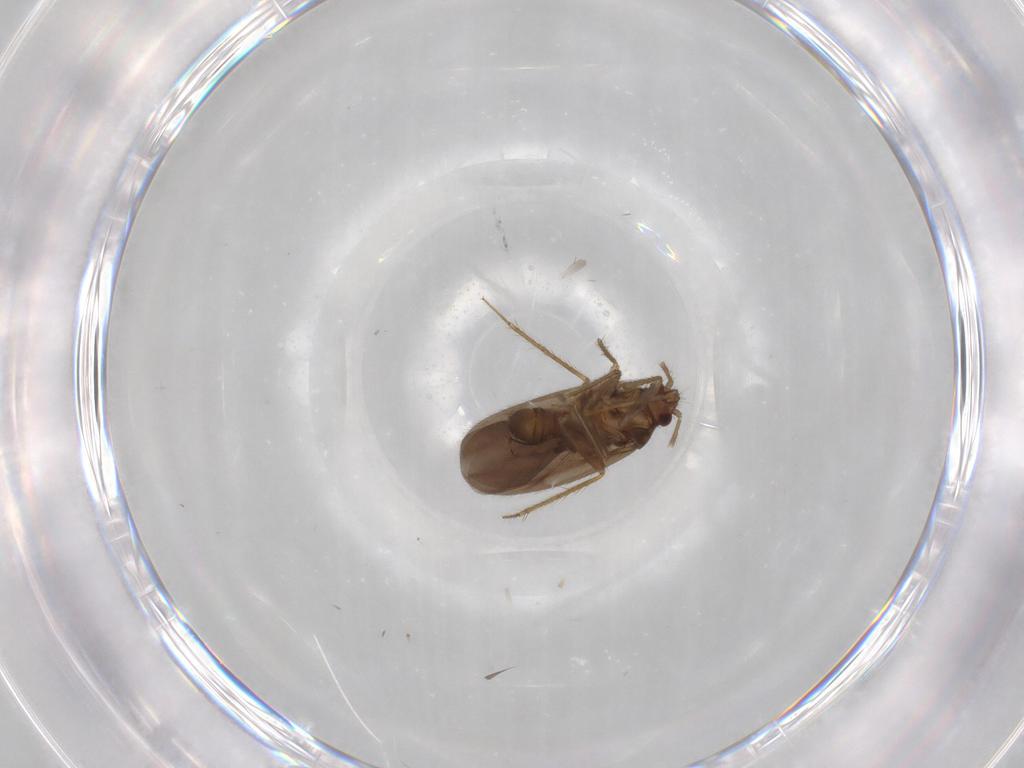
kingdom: Animalia
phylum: Arthropoda
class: Insecta
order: Hemiptera
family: Ceratocombidae
